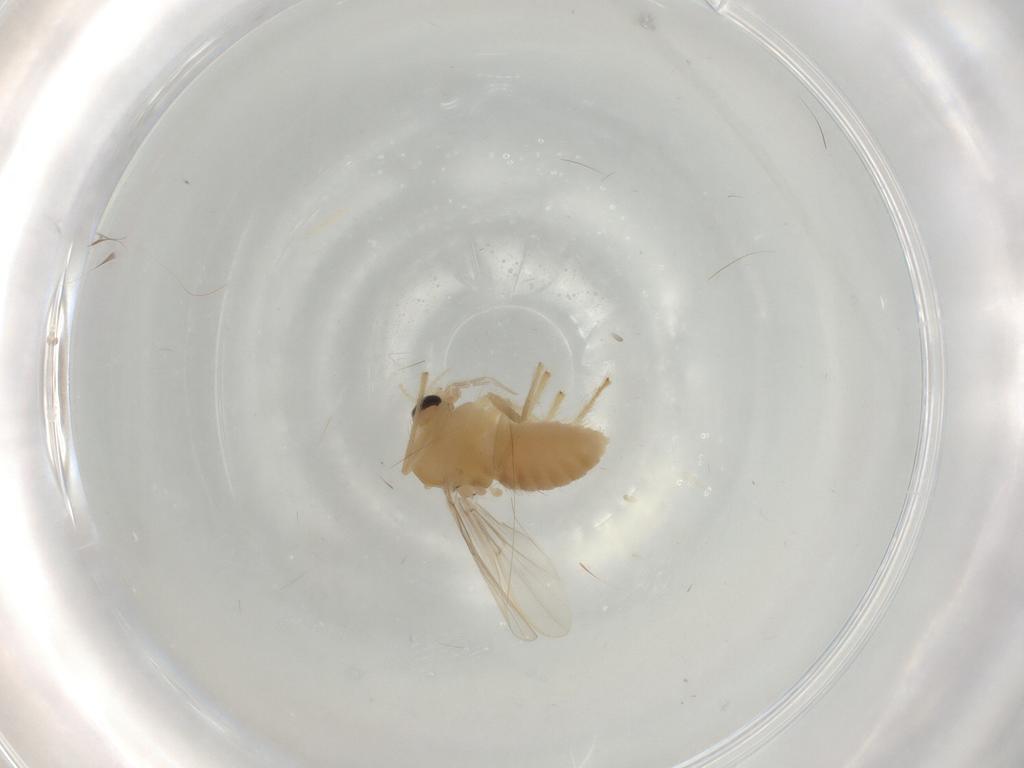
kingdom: Animalia
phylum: Arthropoda
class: Insecta
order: Diptera
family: Chironomidae
